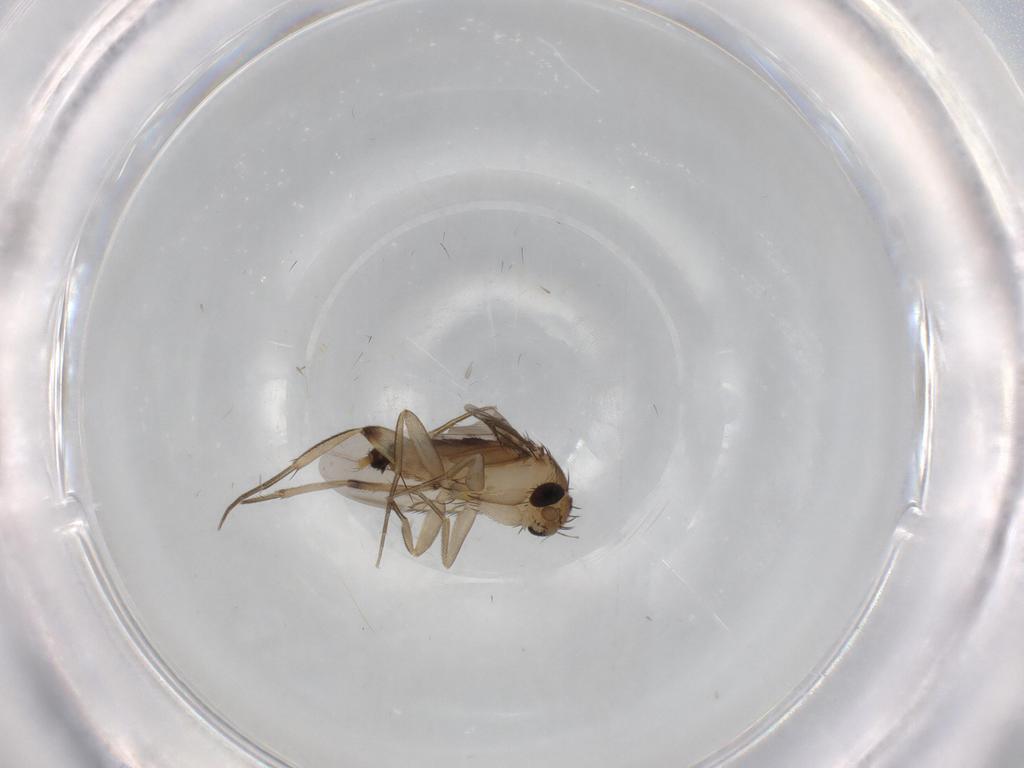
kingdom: Animalia
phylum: Arthropoda
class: Insecta
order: Diptera
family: Phoridae
